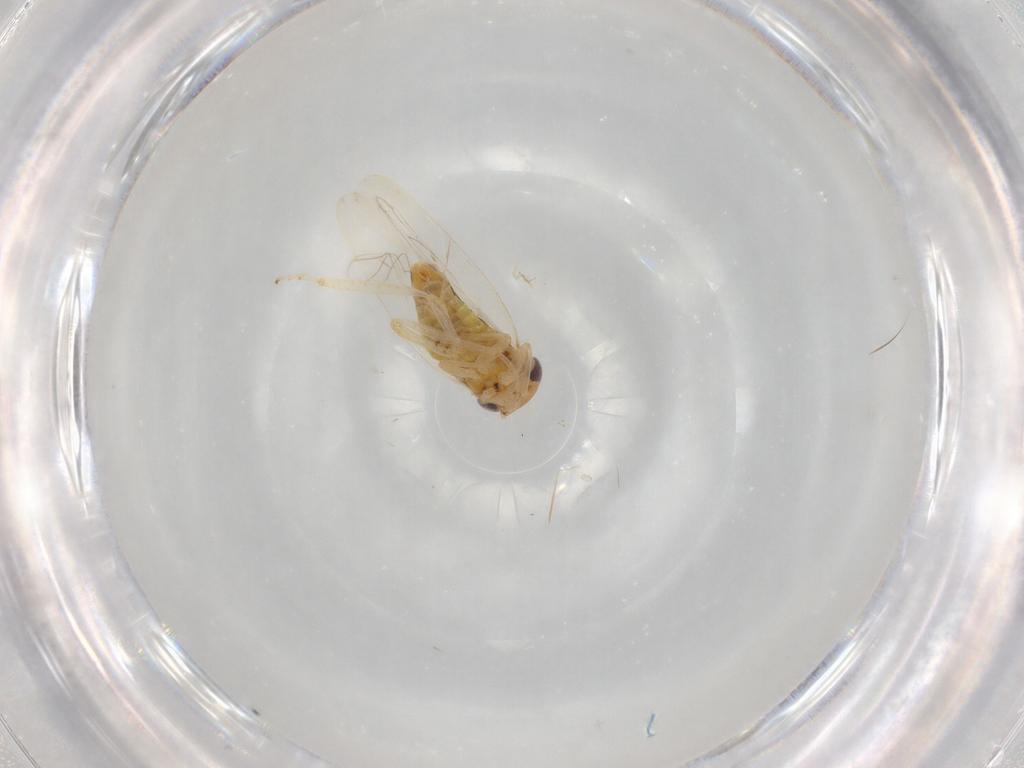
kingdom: Animalia
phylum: Arthropoda
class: Insecta
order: Hemiptera
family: Cicadellidae
